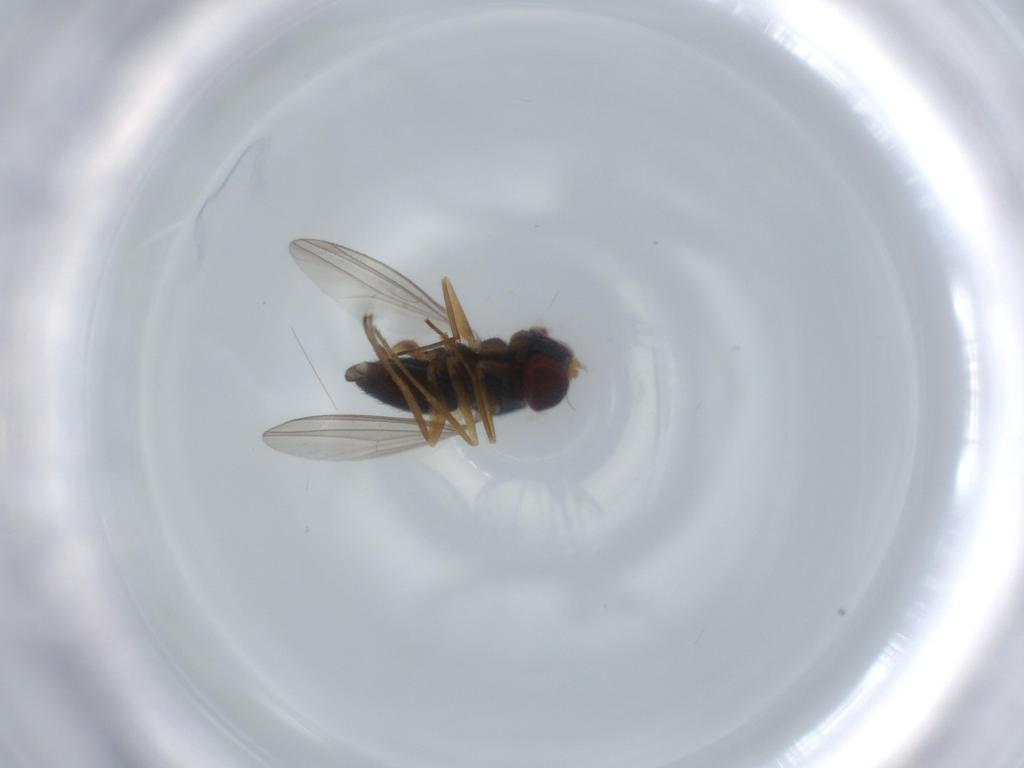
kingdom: Animalia
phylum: Arthropoda
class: Insecta
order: Diptera
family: Dolichopodidae
